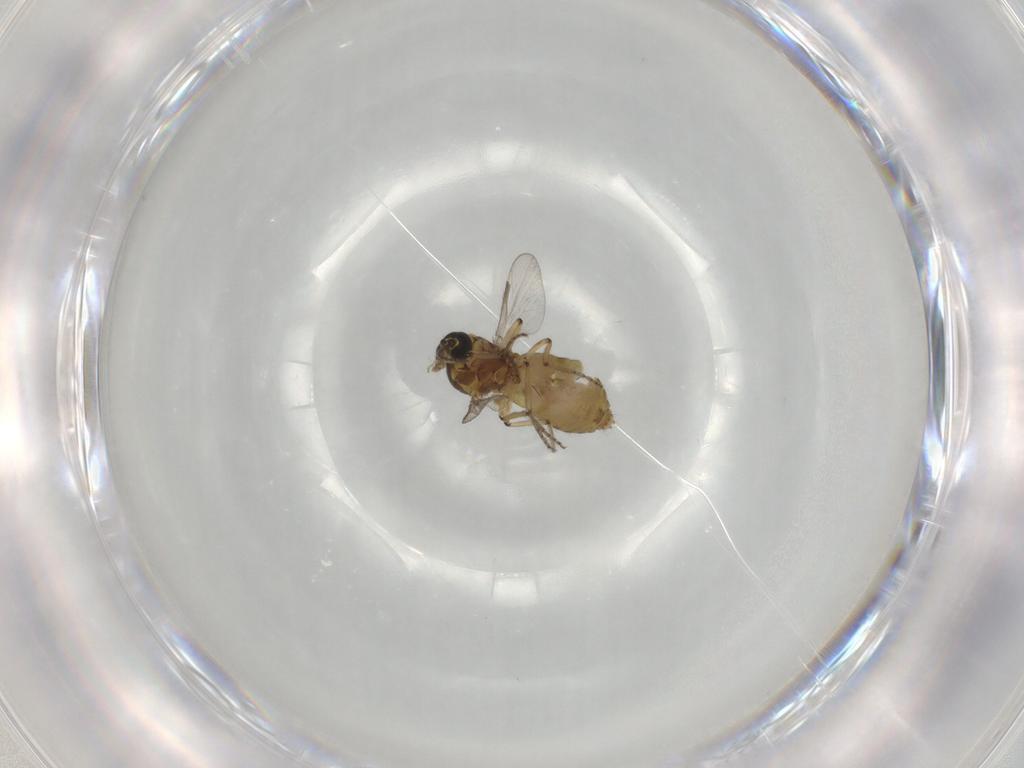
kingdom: Animalia
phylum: Arthropoda
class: Insecta
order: Diptera
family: Ceratopogonidae
